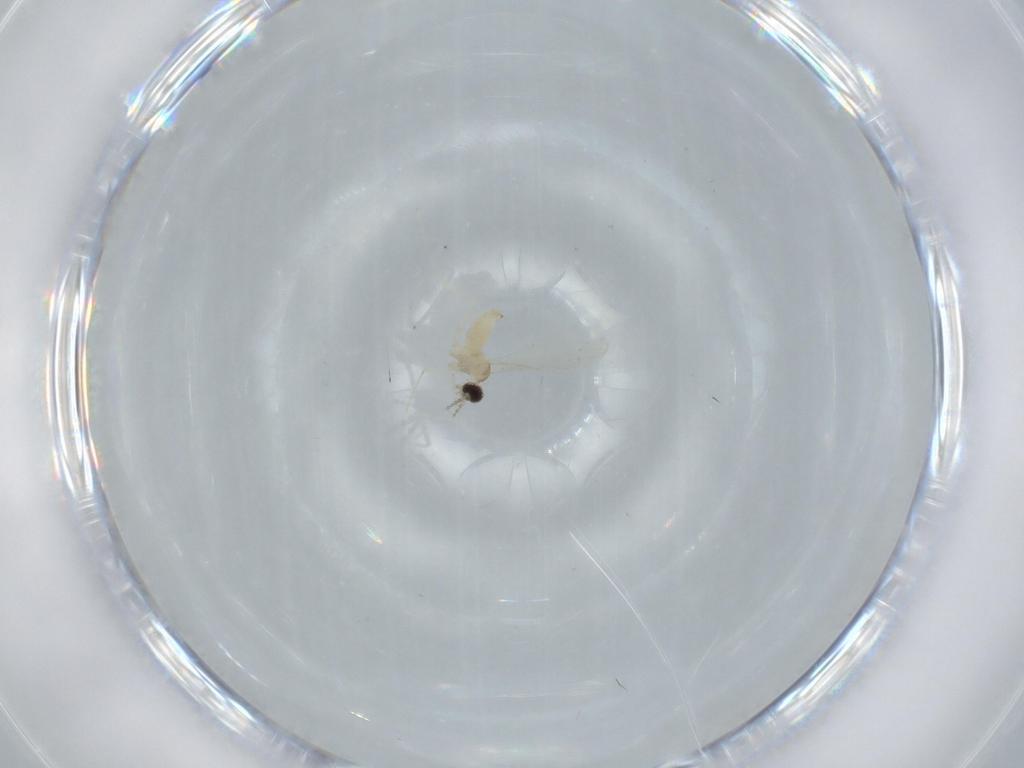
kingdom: Animalia
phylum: Arthropoda
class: Insecta
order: Diptera
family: Cecidomyiidae
